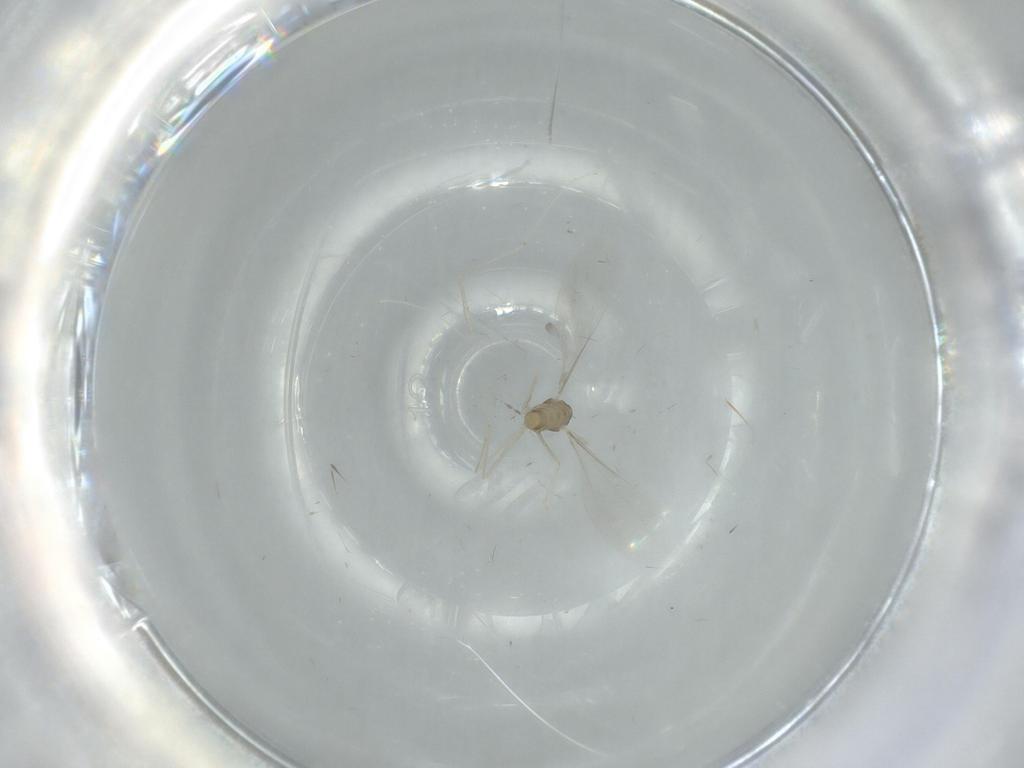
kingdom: Animalia
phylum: Arthropoda
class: Insecta
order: Diptera
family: Cecidomyiidae
